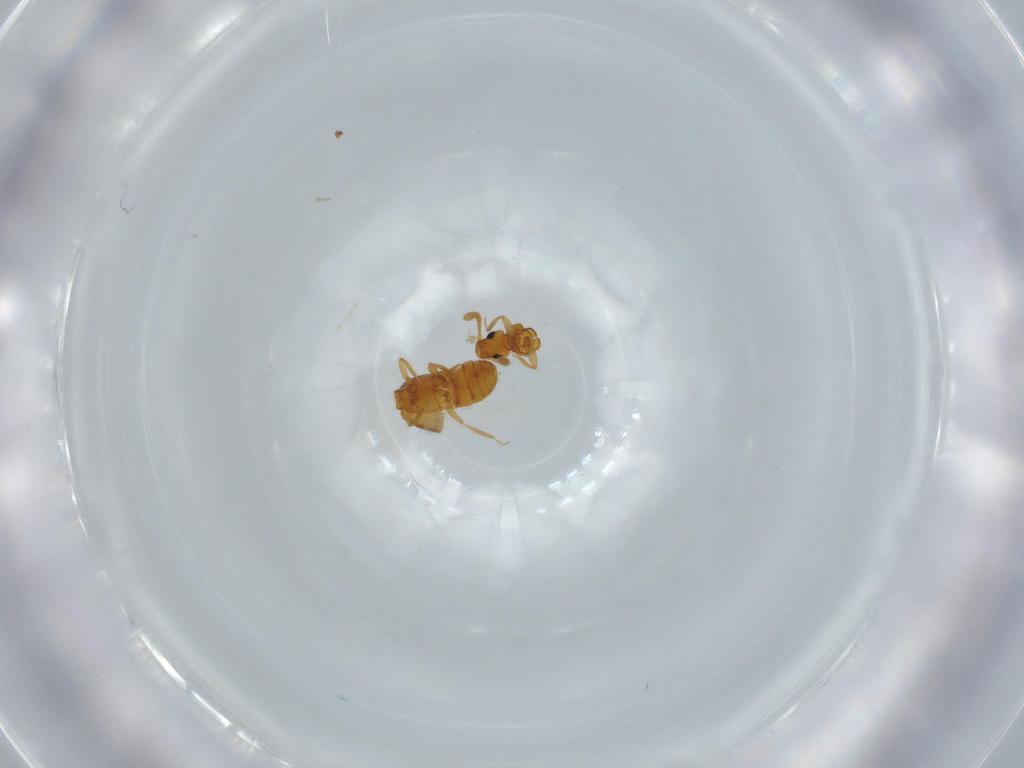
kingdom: Animalia
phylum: Arthropoda
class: Insecta
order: Coleoptera
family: Staphylinidae
